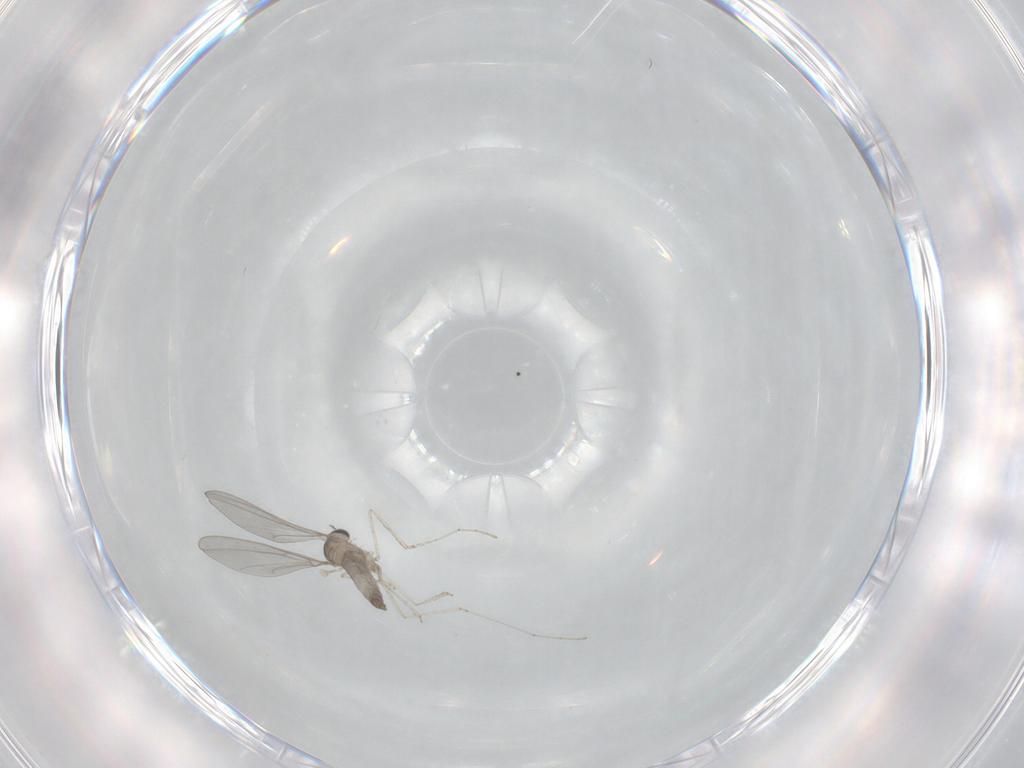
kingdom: Animalia
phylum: Arthropoda
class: Insecta
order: Diptera
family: Cecidomyiidae
